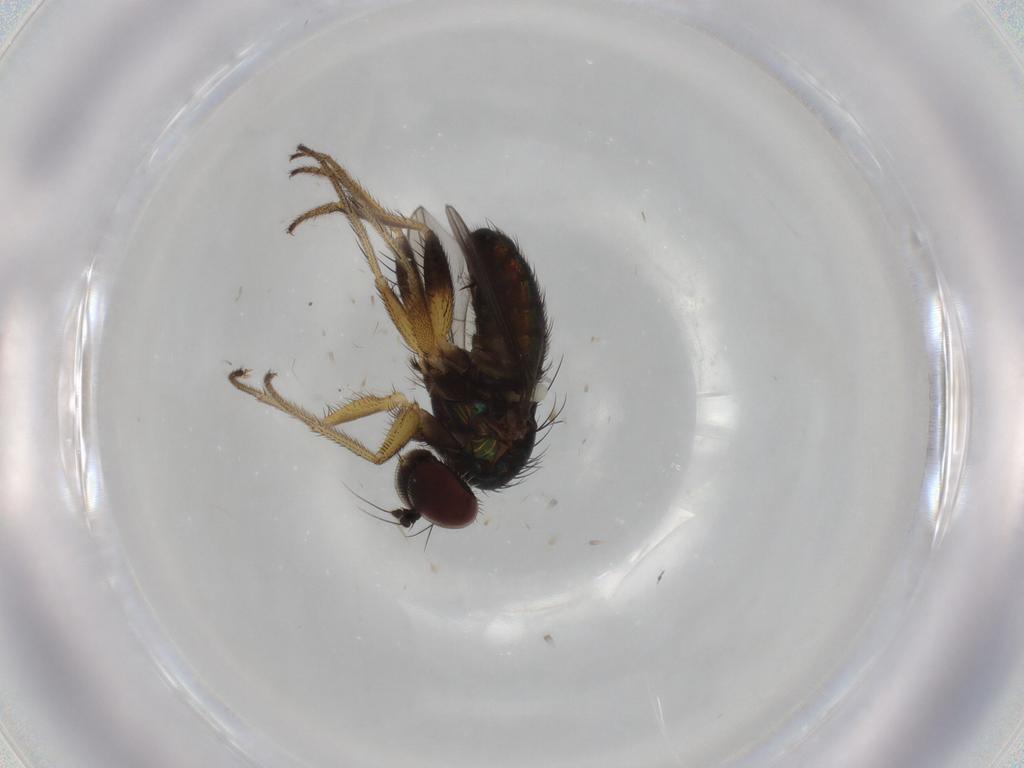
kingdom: Animalia
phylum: Arthropoda
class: Insecta
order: Diptera
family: Dolichopodidae
